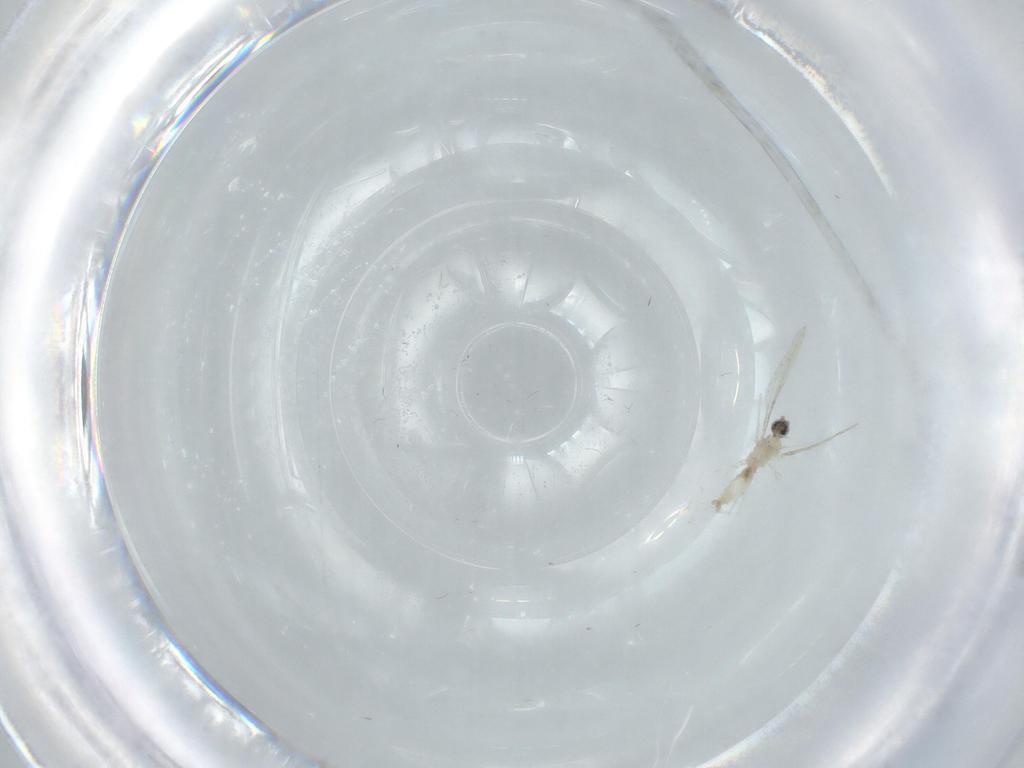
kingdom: Animalia
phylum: Arthropoda
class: Insecta
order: Diptera
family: Cecidomyiidae
